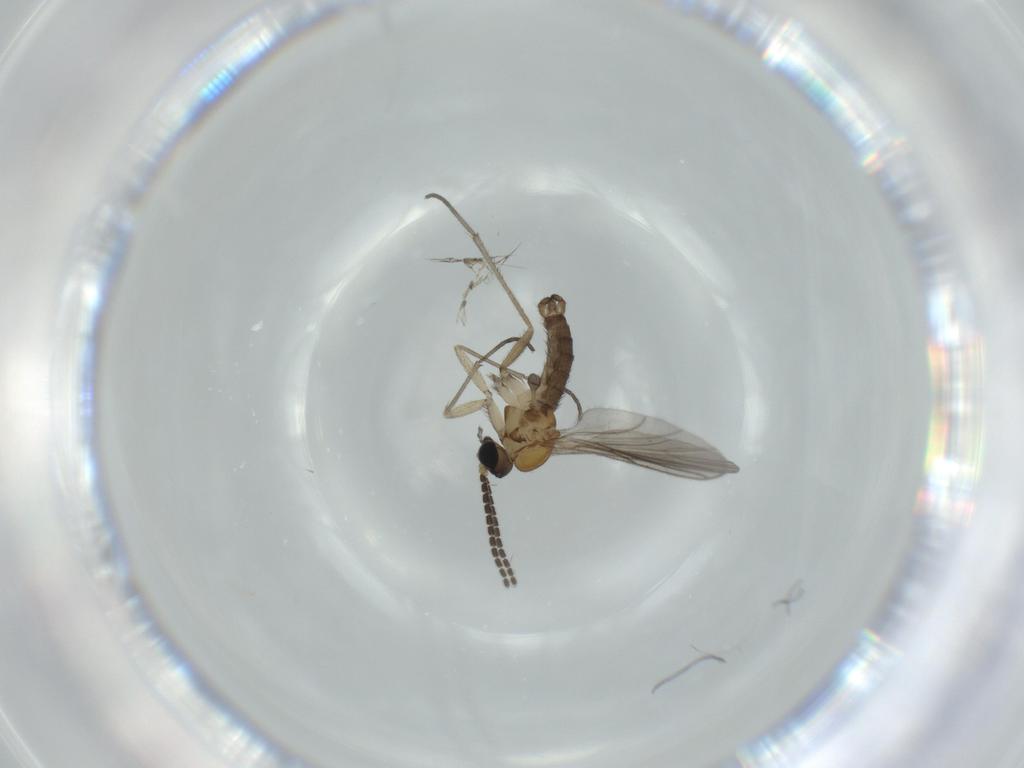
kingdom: Animalia
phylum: Arthropoda
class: Insecta
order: Diptera
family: Sciaridae
